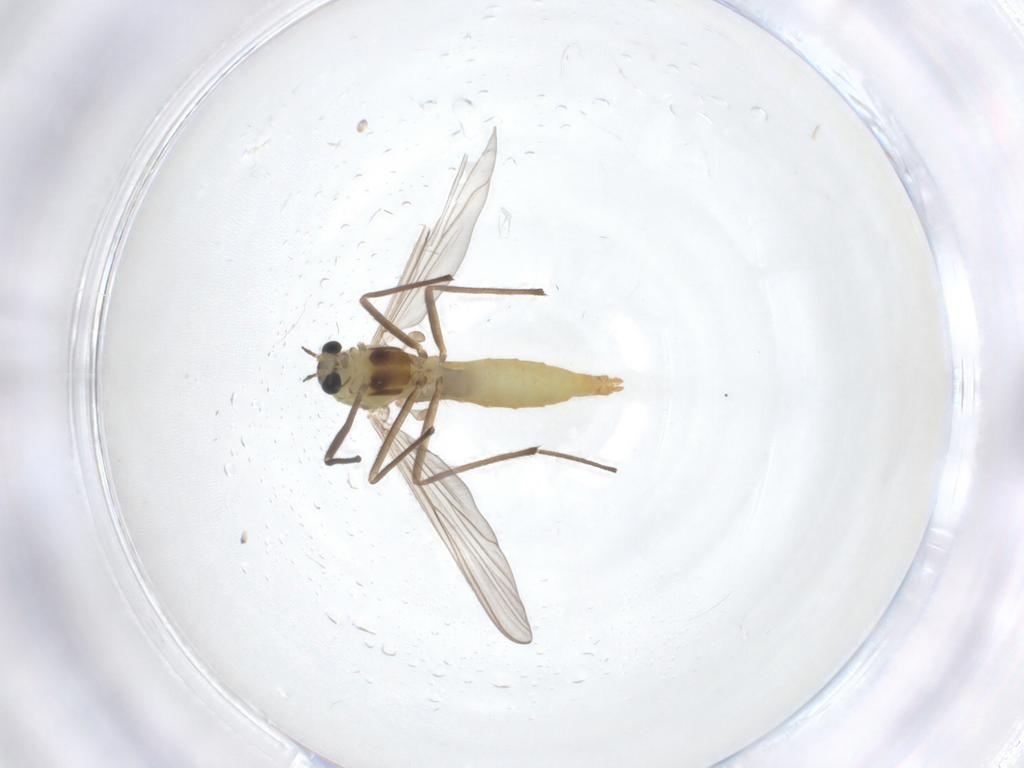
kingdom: Animalia
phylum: Arthropoda
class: Insecta
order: Diptera
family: Chironomidae
